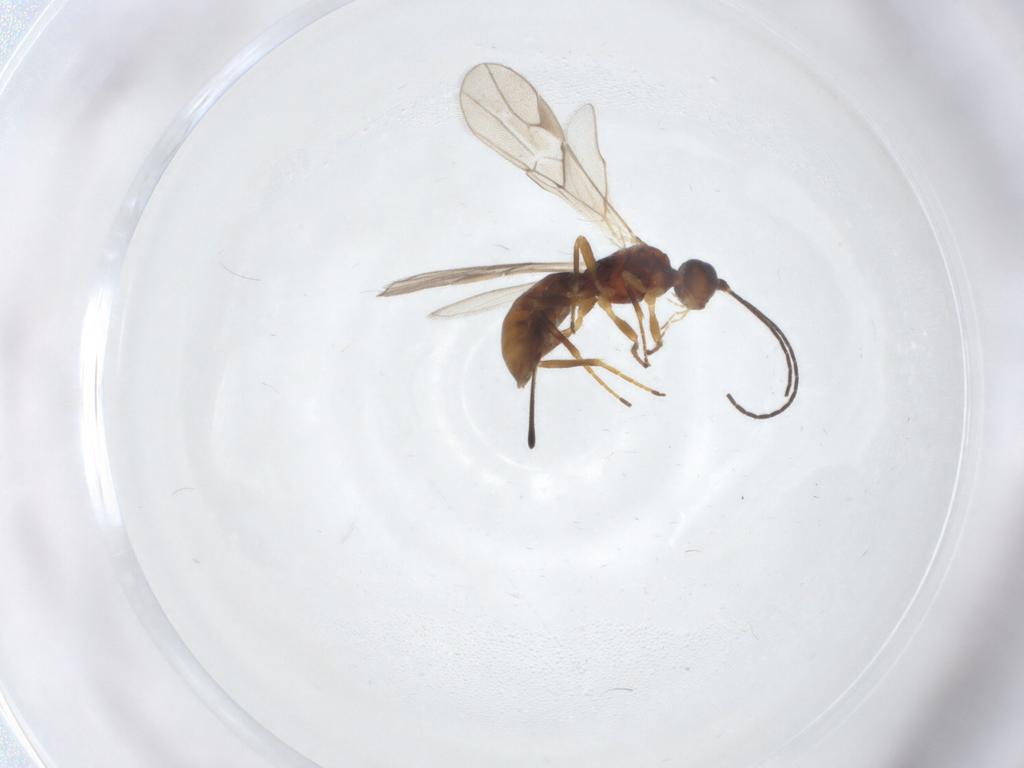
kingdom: Animalia
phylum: Arthropoda
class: Insecta
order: Hymenoptera
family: Braconidae
